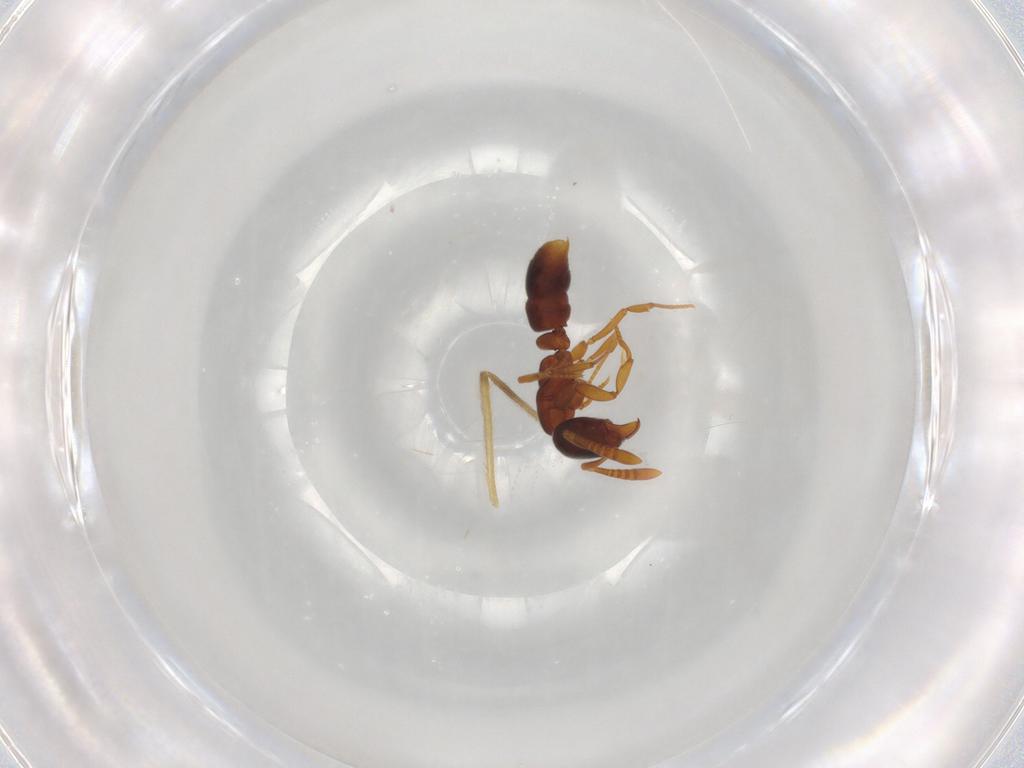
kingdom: Animalia
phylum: Arthropoda
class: Insecta
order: Hymenoptera
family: Formicidae
